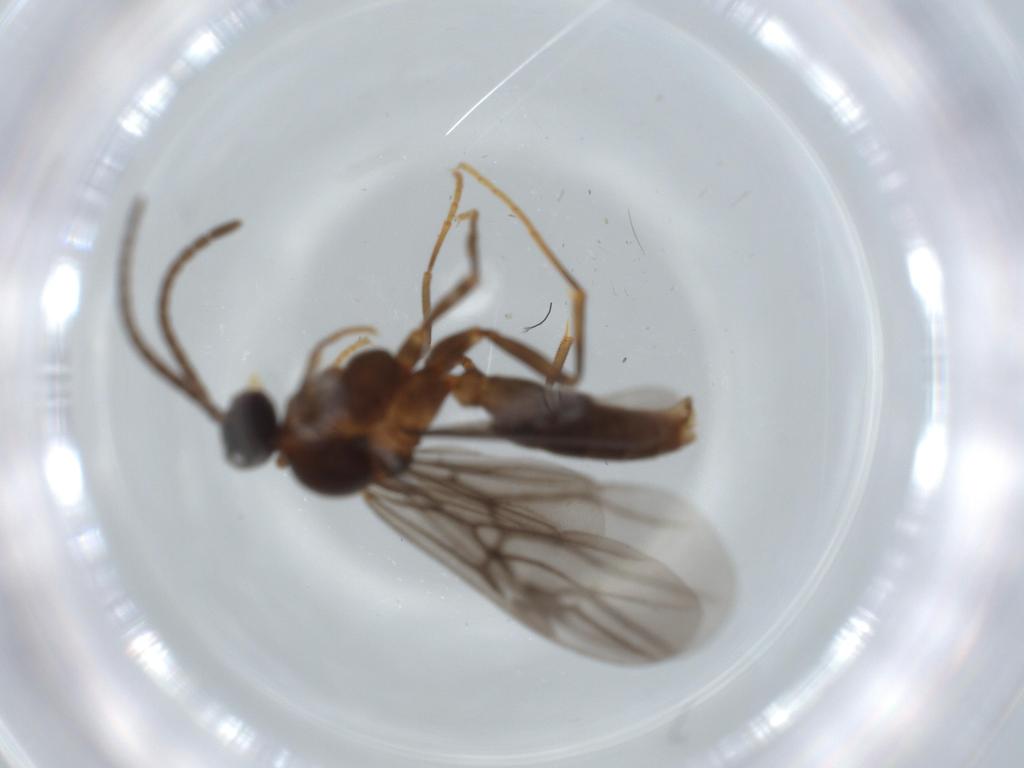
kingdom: Animalia
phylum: Arthropoda
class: Insecta
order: Hymenoptera
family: Formicidae
